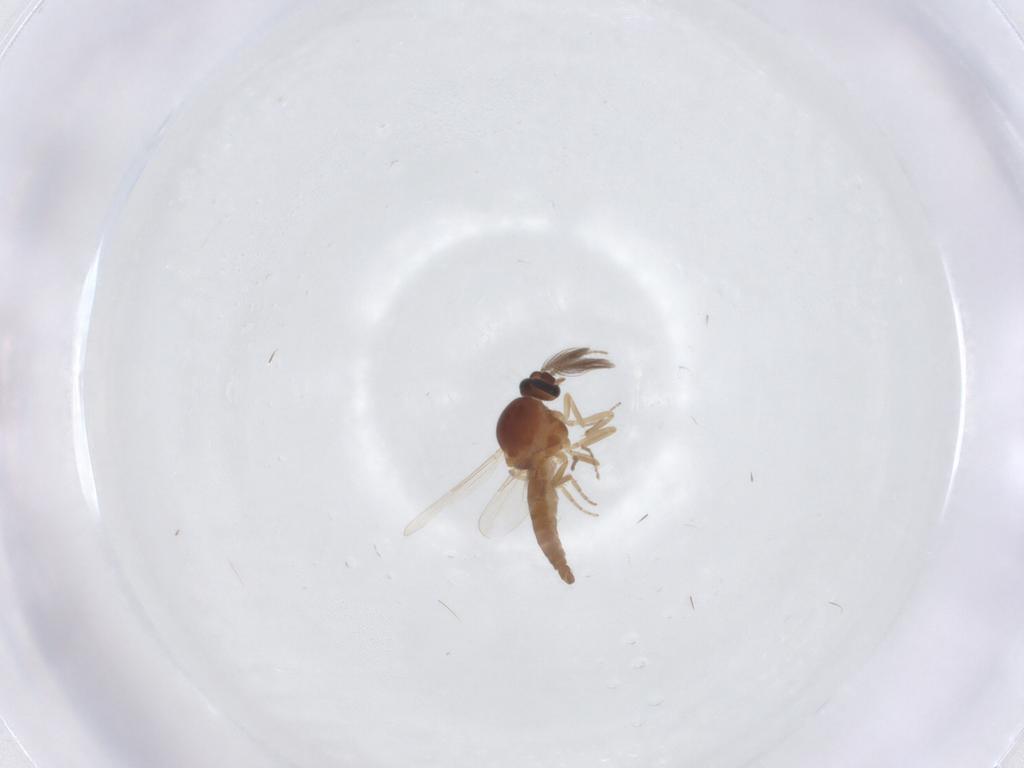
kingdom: Animalia
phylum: Arthropoda
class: Insecta
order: Diptera
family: Ceratopogonidae
